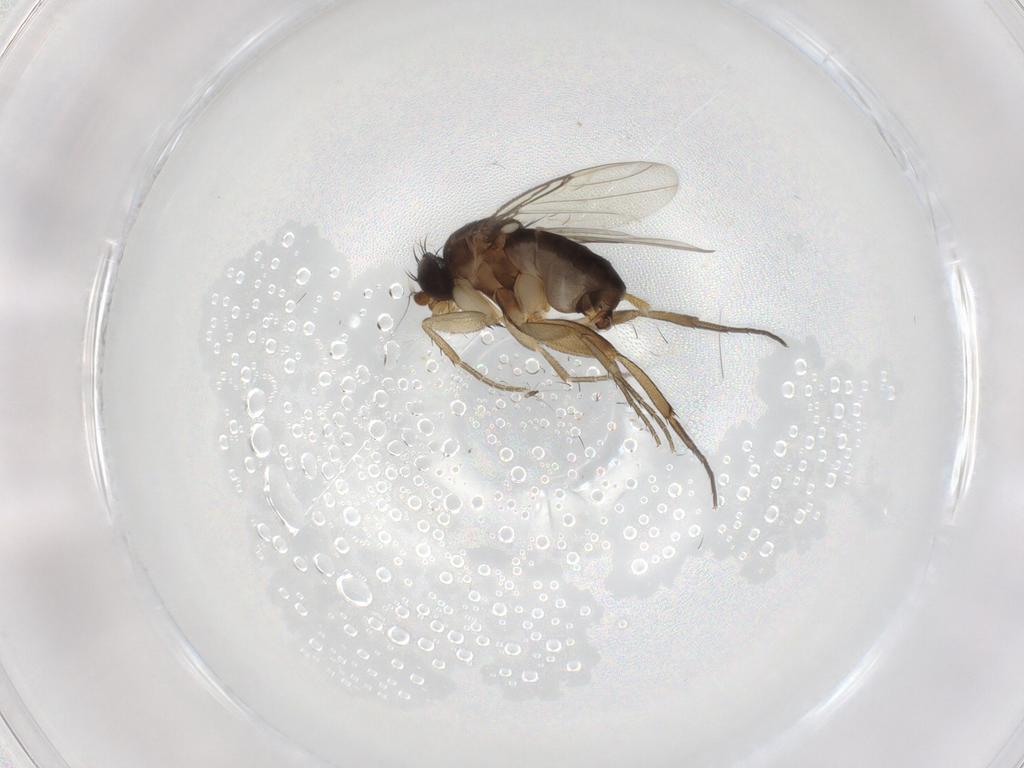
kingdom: Animalia
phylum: Arthropoda
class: Insecta
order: Diptera
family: Phoridae
